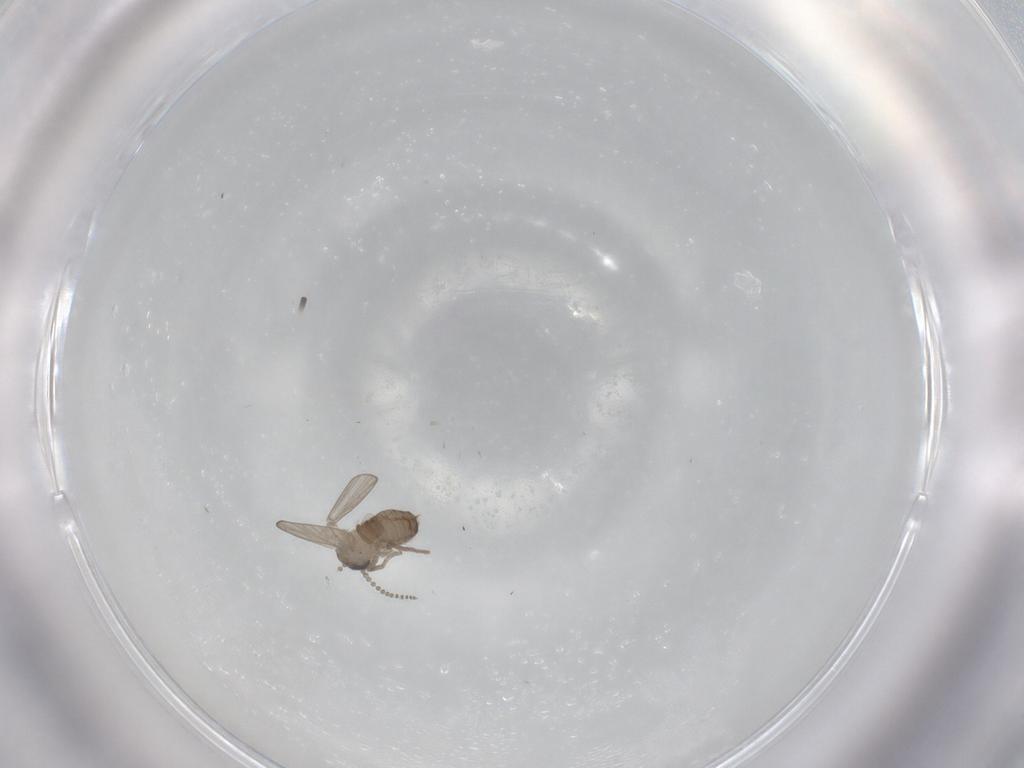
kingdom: Animalia
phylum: Arthropoda
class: Insecta
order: Diptera
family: Psychodidae
